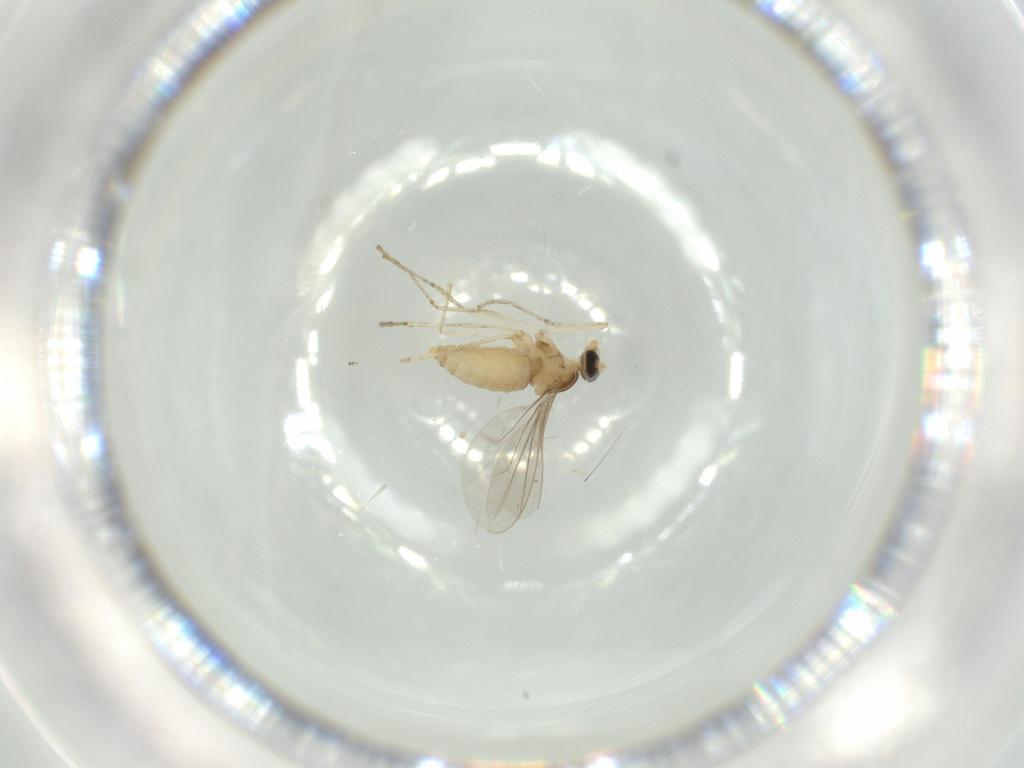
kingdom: Animalia
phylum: Arthropoda
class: Insecta
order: Diptera
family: Cecidomyiidae
